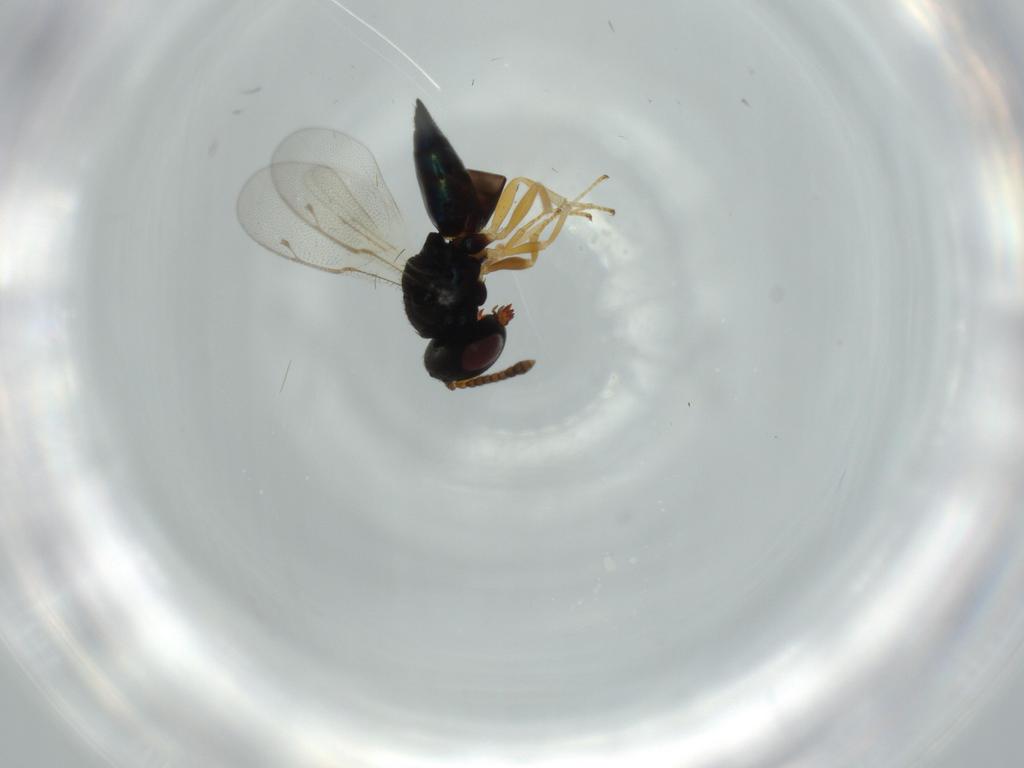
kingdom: Animalia
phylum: Arthropoda
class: Insecta
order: Hymenoptera
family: Pteromalidae
